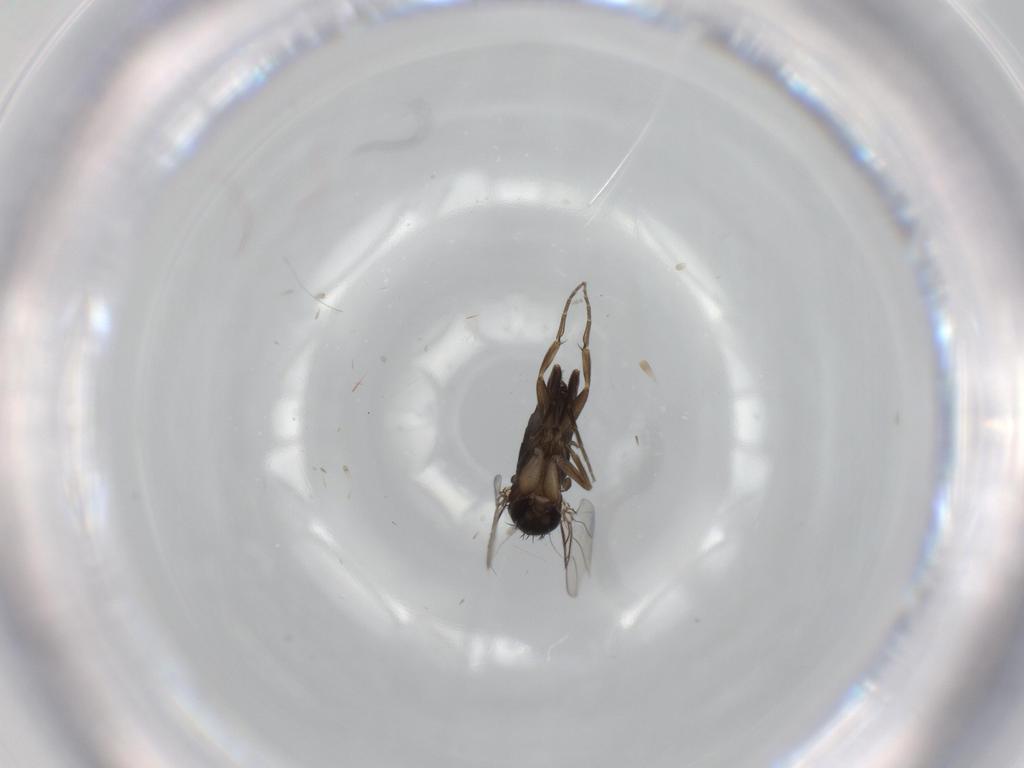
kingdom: Animalia
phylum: Arthropoda
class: Insecta
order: Diptera
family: Phoridae
